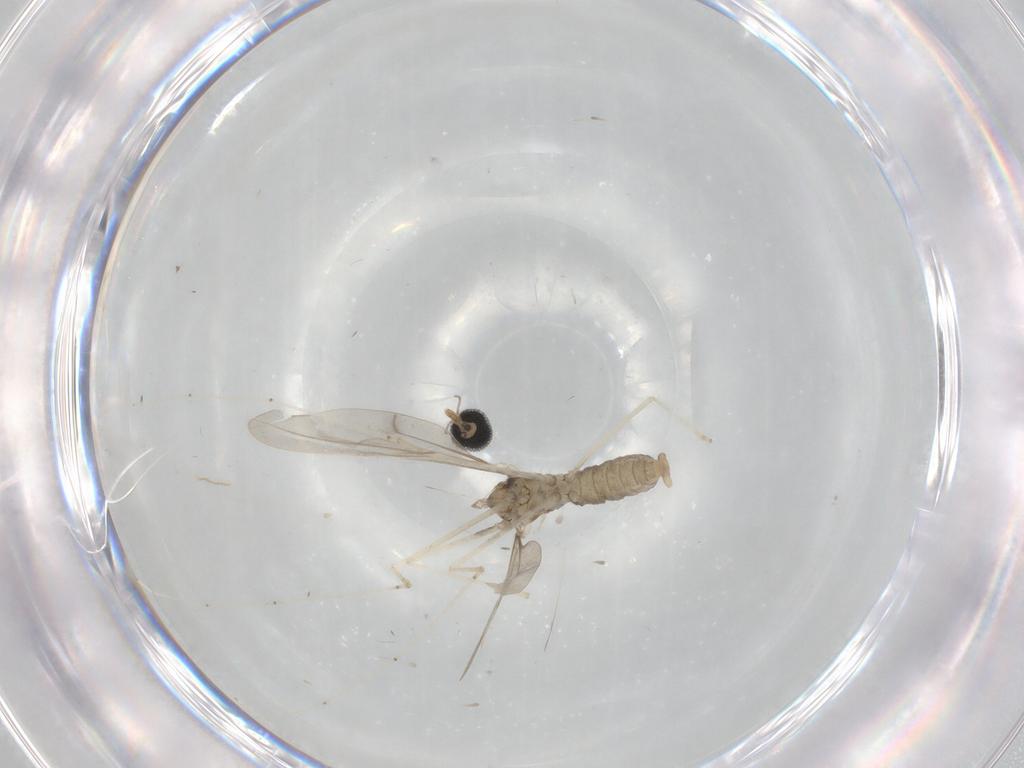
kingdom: Animalia
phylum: Arthropoda
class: Insecta
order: Diptera
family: Cecidomyiidae
